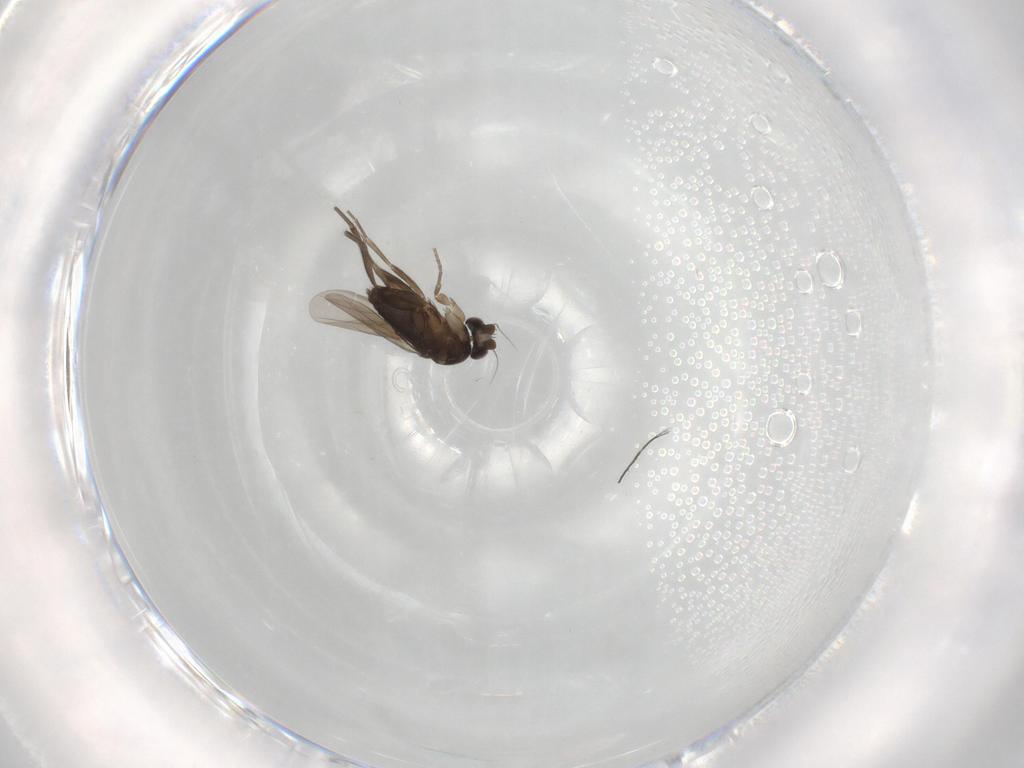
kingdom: Animalia
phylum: Arthropoda
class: Insecta
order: Diptera
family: Phoridae
